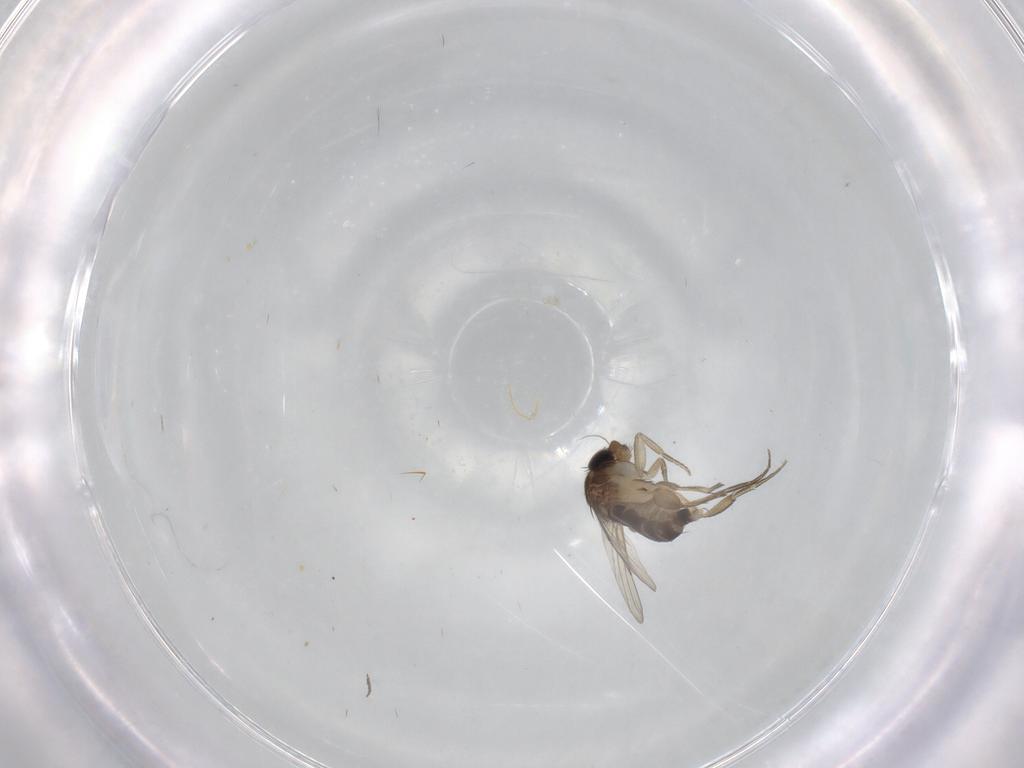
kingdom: Animalia
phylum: Arthropoda
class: Insecta
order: Diptera
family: Phoridae
